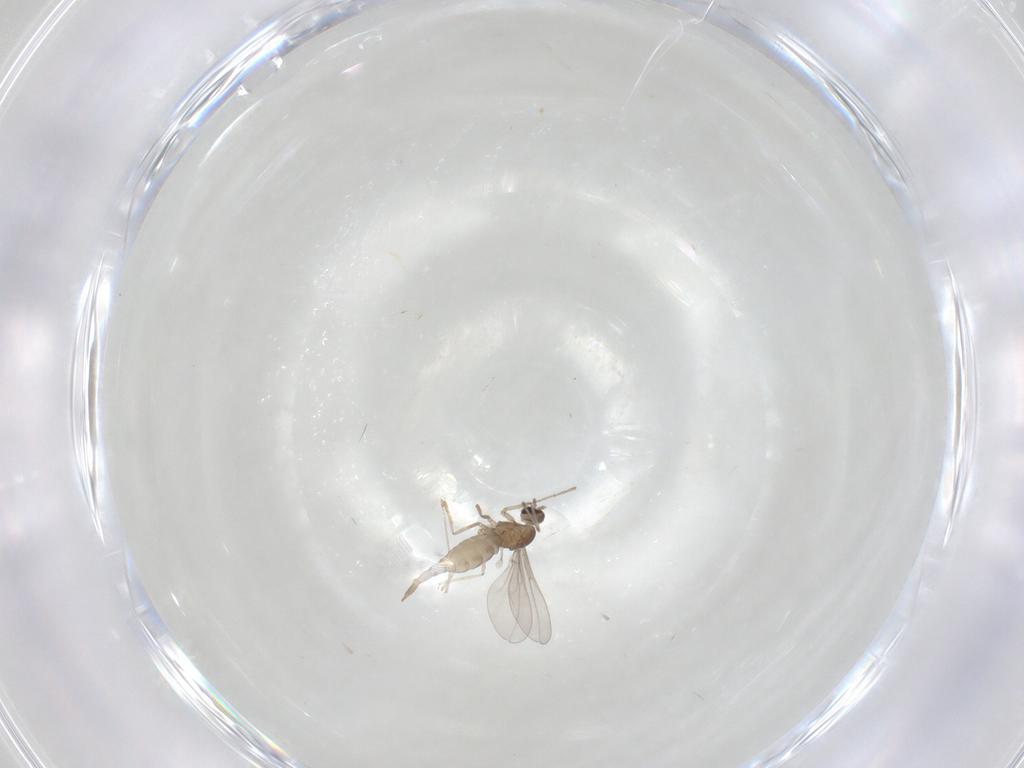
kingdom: Animalia
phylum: Arthropoda
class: Insecta
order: Diptera
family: Cecidomyiidae
